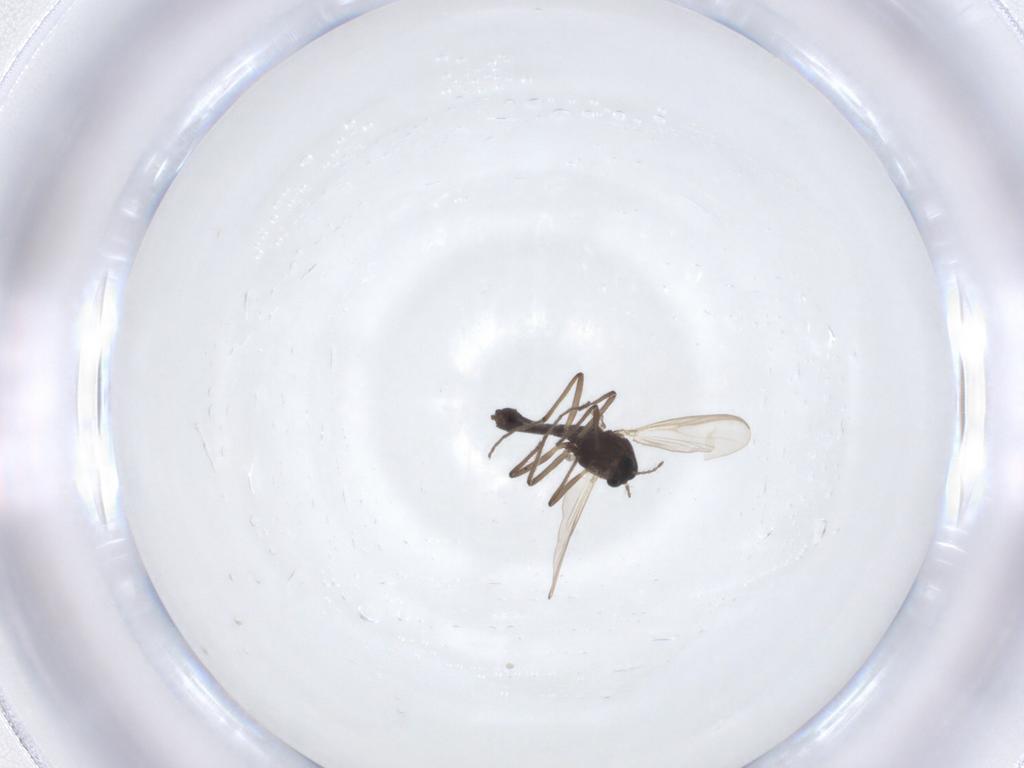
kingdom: Animalia
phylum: Arthropoda
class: Insecta
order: Diptera
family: Chironomidae
